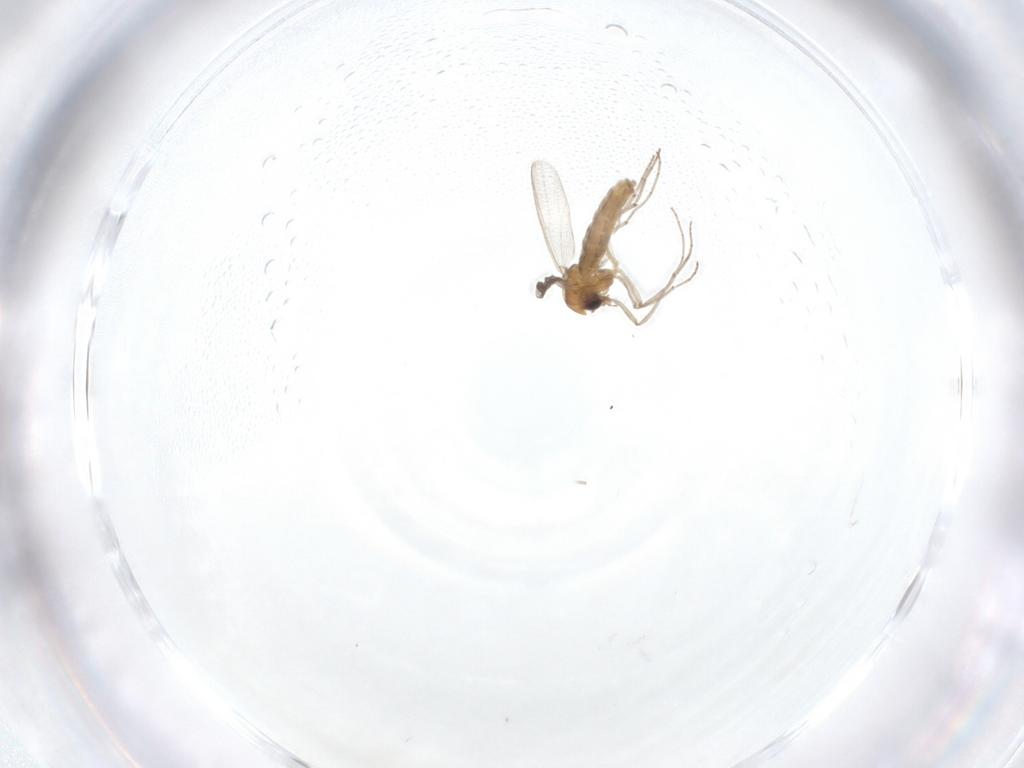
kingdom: Animalia
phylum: Arthropoda
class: Insecta
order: Diptera
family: Chironomidae
